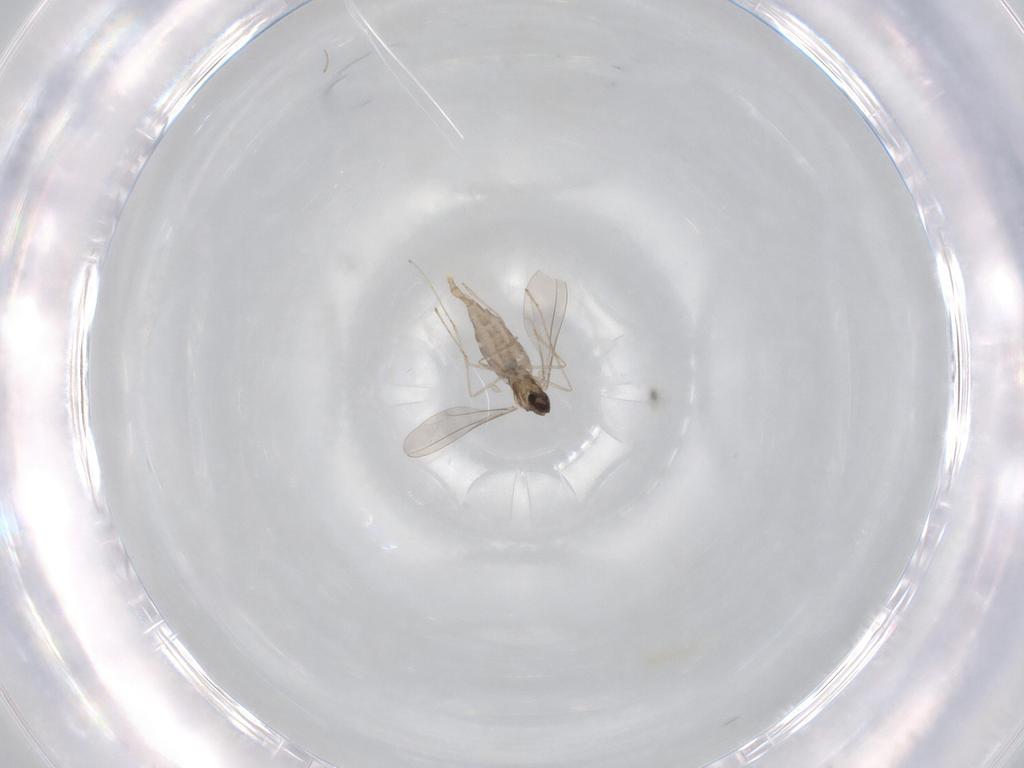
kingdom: Animalia
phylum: Arthropoda
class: Insecta
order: Diptera
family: Chironomidae
